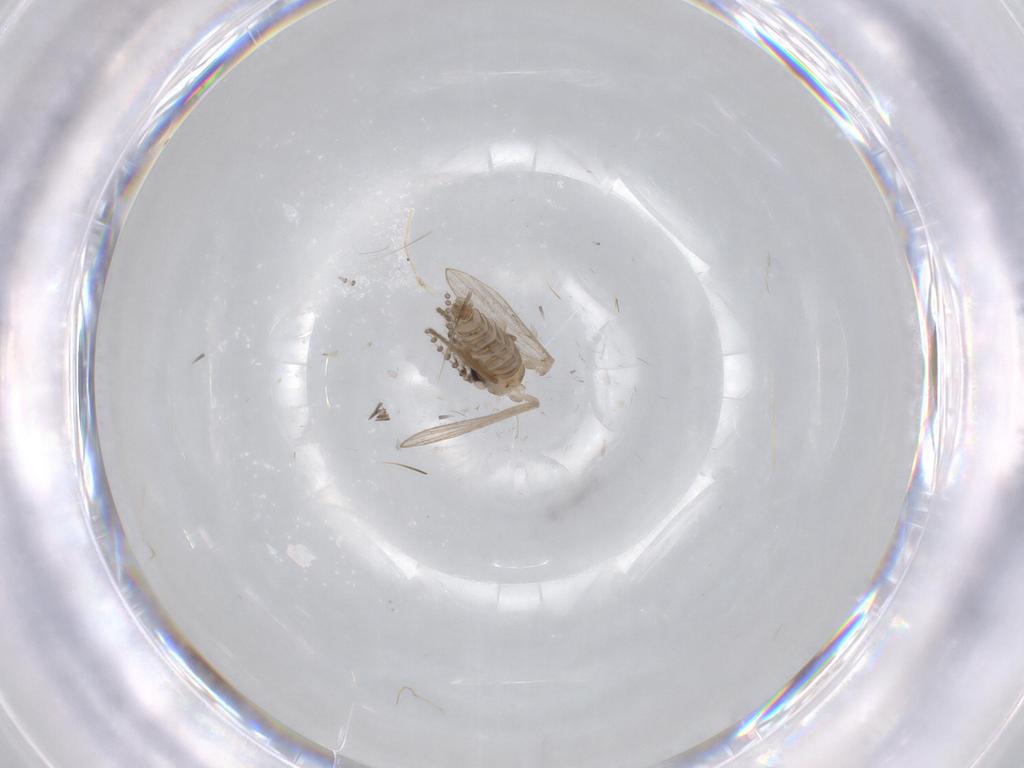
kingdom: Animalia
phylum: Arthropoda
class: Insecta
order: Diptera
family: Psychodidae
